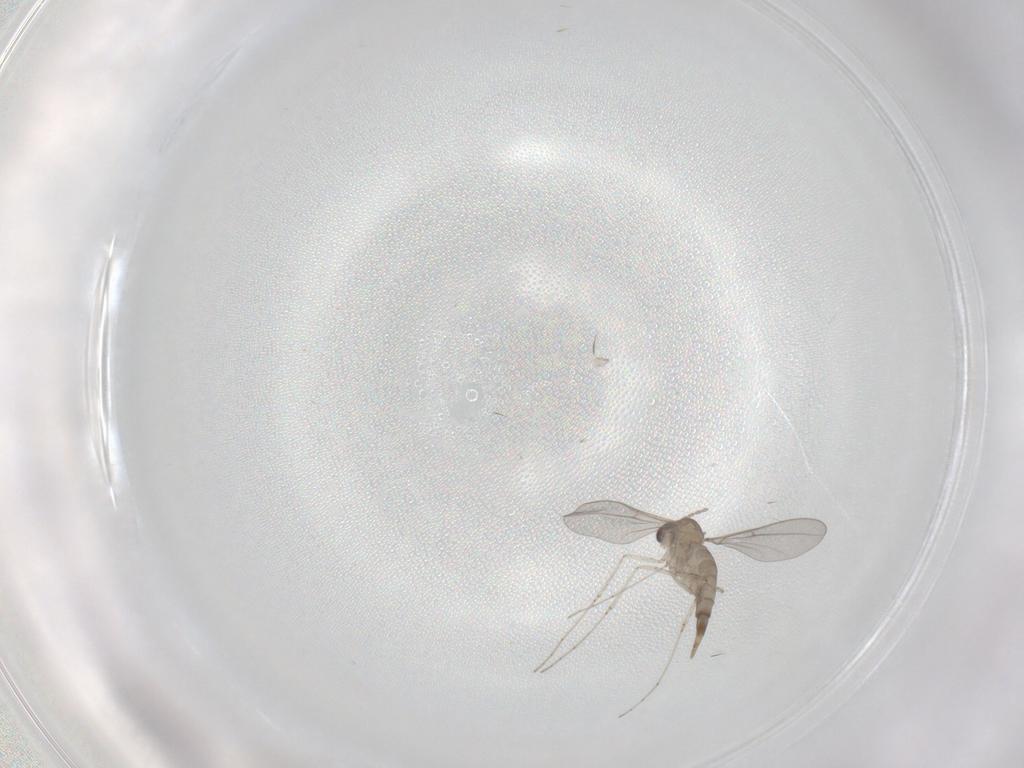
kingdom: Animalia
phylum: Arthropoda
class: Insecta
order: Diptera
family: Cecidomyiidae
